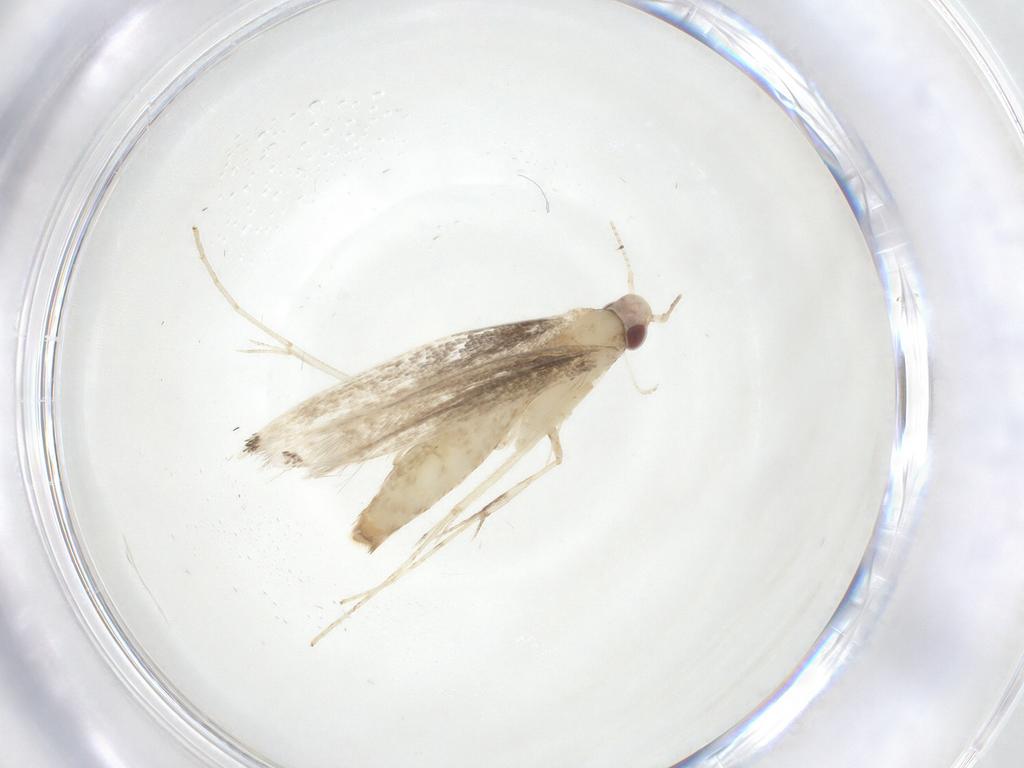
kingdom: Animalia
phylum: Arthropoda
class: Insecta
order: Lepidoptera
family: Crambidae
